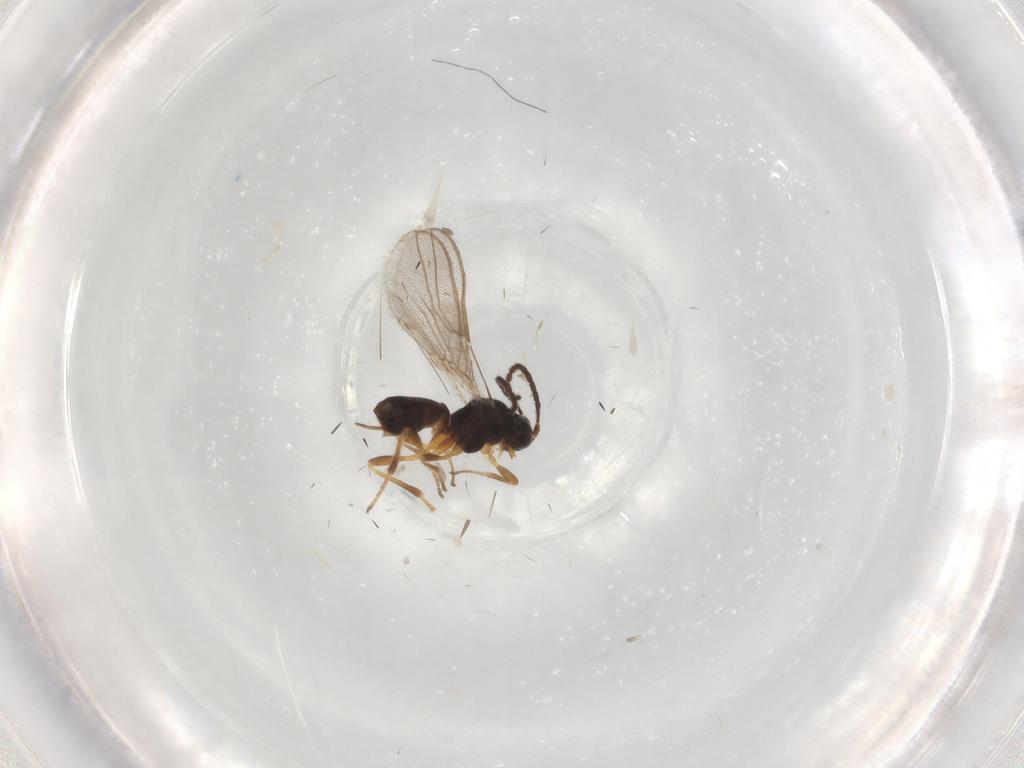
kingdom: Animalia
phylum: Arthropoda
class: Insecta
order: Hymenoptera
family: Braconidae
